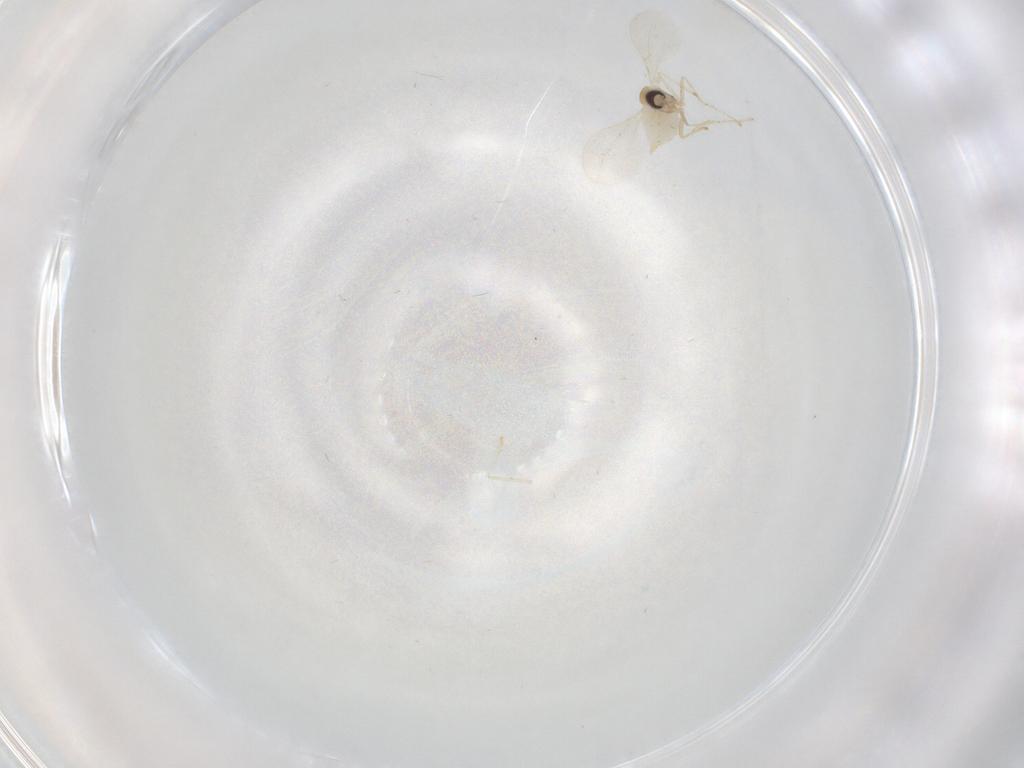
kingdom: Animalia
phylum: Arthropoda
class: Insecta
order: Diptera
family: Cecidomyiidae
